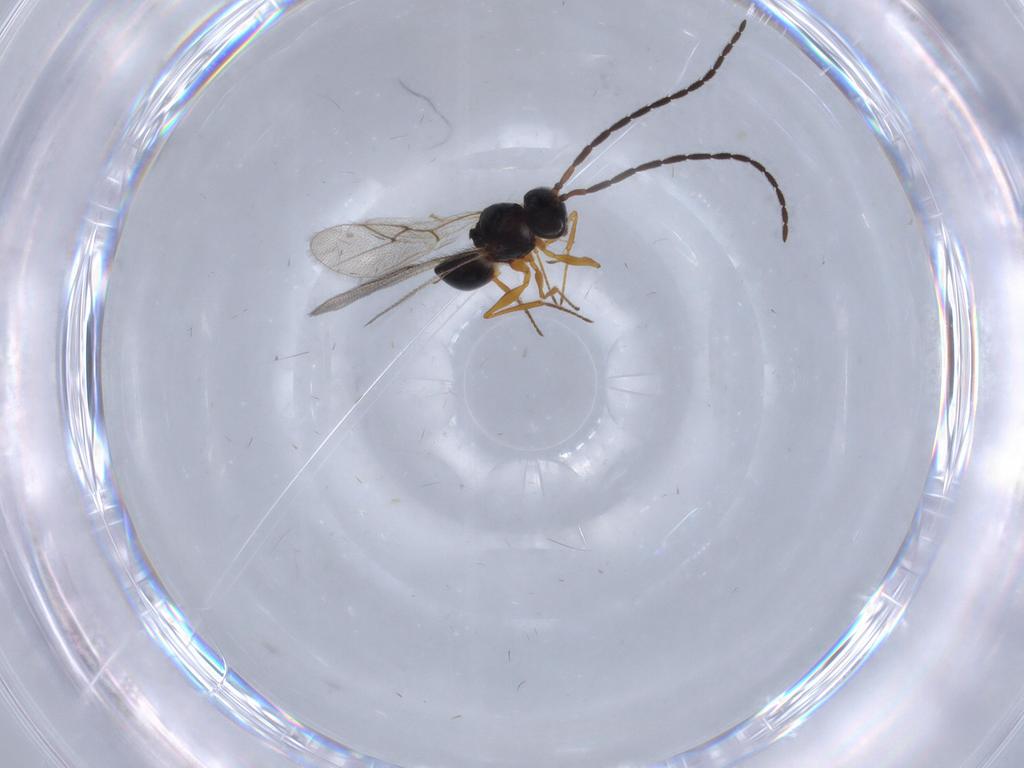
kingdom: Animalia
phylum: Arthropoda
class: Insecta
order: Hymenoptera
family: Figitidae
